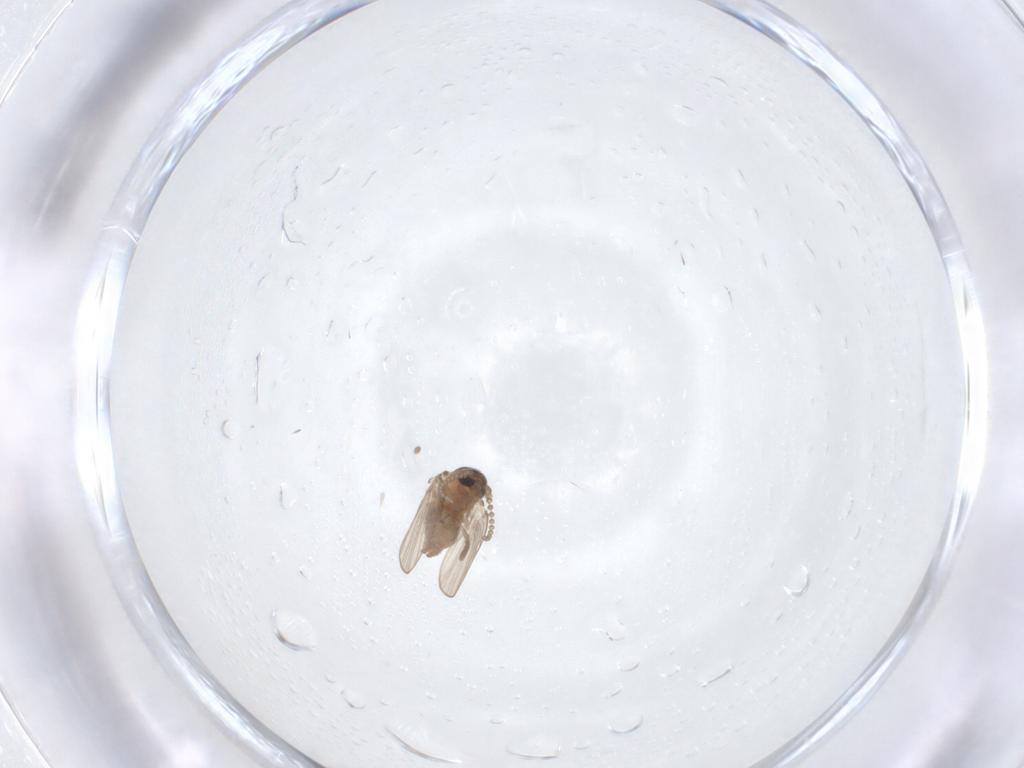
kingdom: Animalia
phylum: Arthropoda
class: Insecta
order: Diptera
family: Psychodidae
